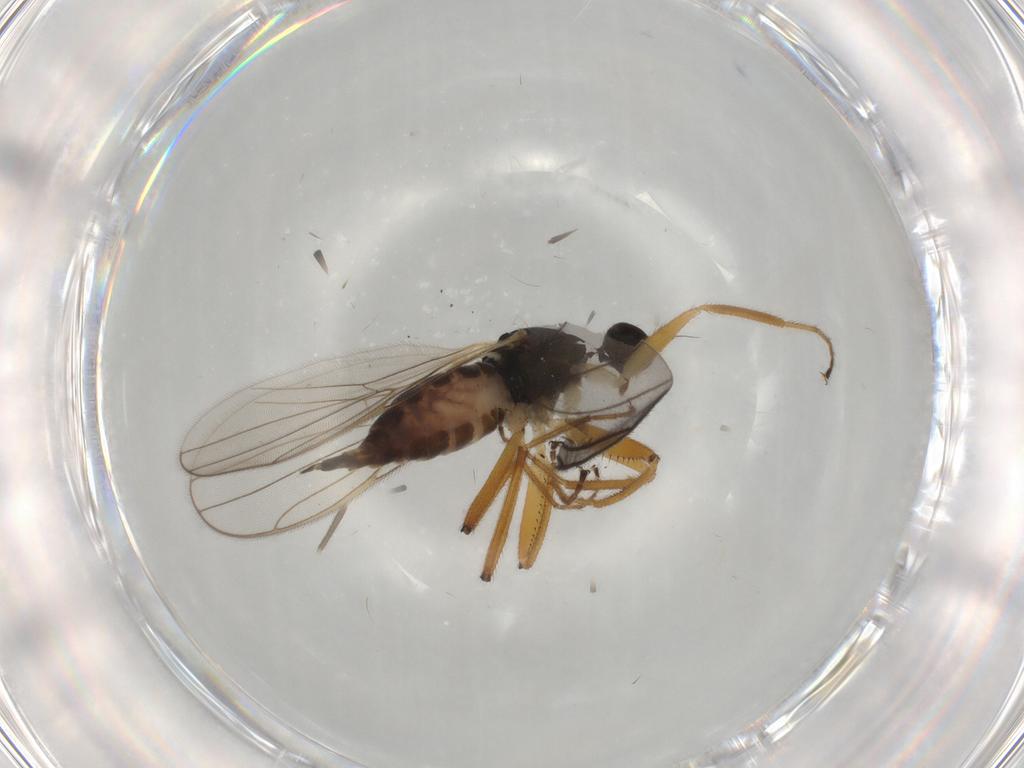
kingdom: Animalia
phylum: Arthropoda
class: Insecta
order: Diptera
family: Hybotidae
